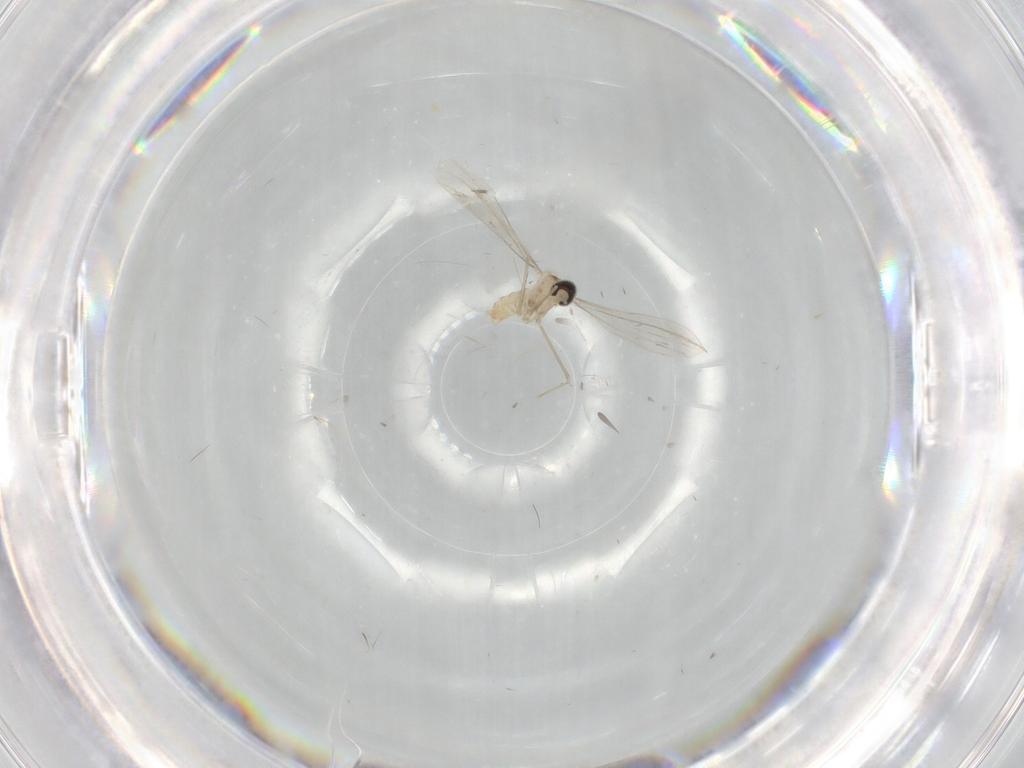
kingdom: Animalia
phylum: Arthropoda
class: Insecta
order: Diptera
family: Cecidomyiidae
